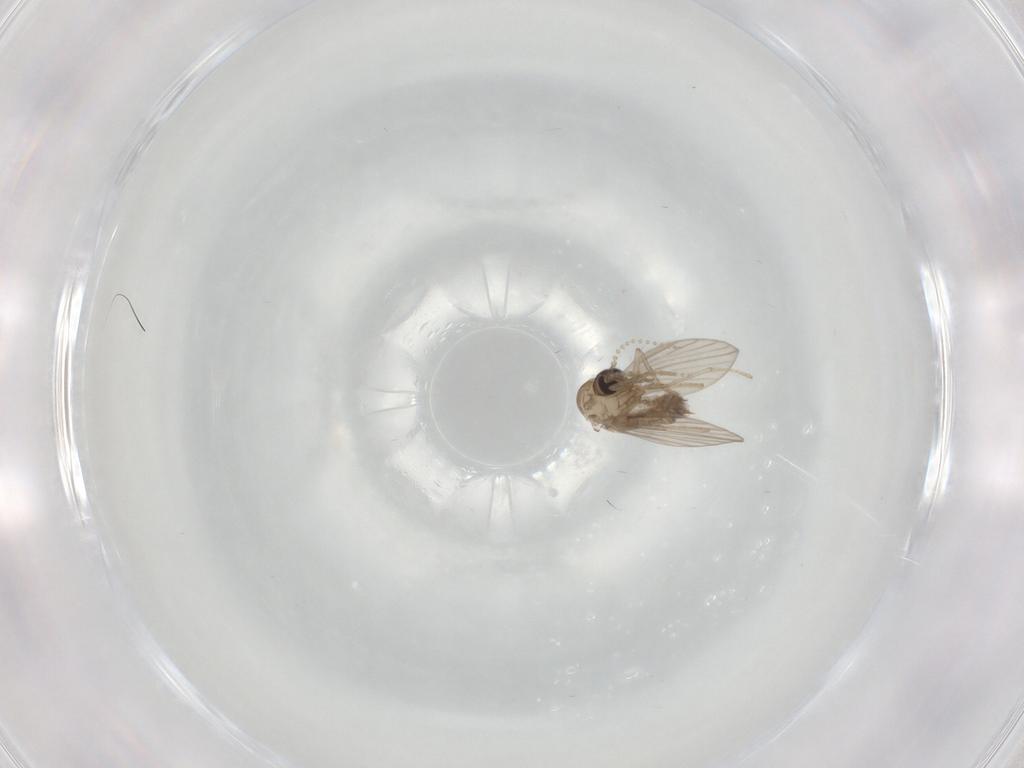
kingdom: Animalia
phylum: Arthropoda
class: Insecta
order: Diptera
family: Psychodidae
